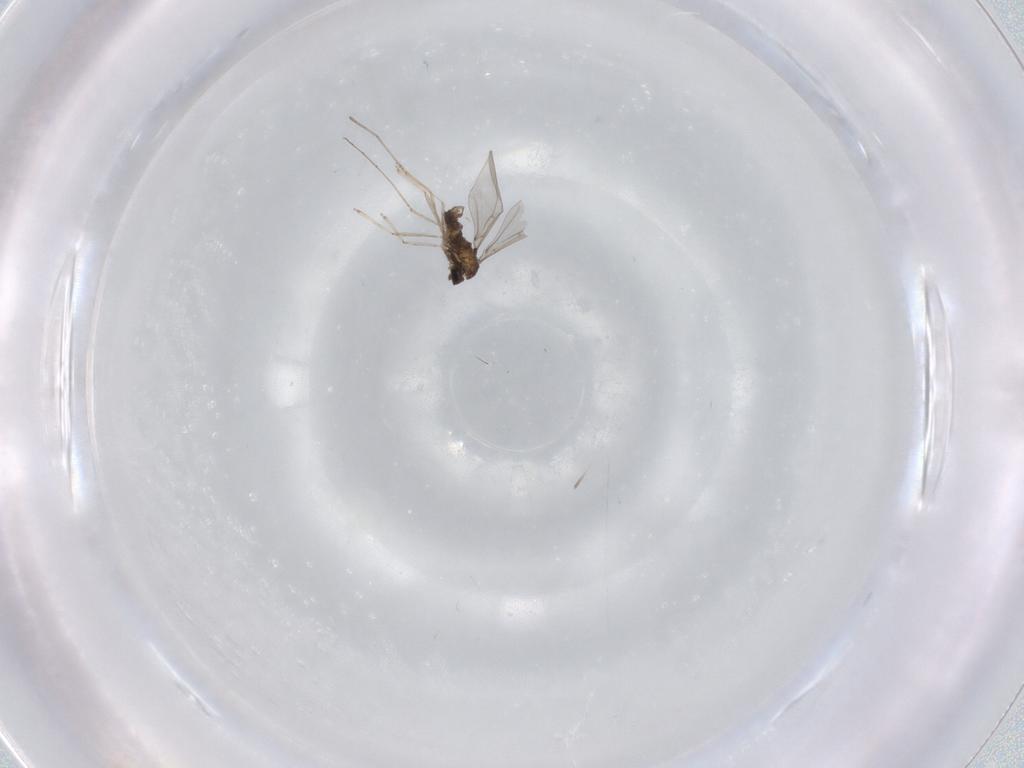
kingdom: Animalia
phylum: Arthropoda
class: Insecta
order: Diptera
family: Cecidomyiidae
